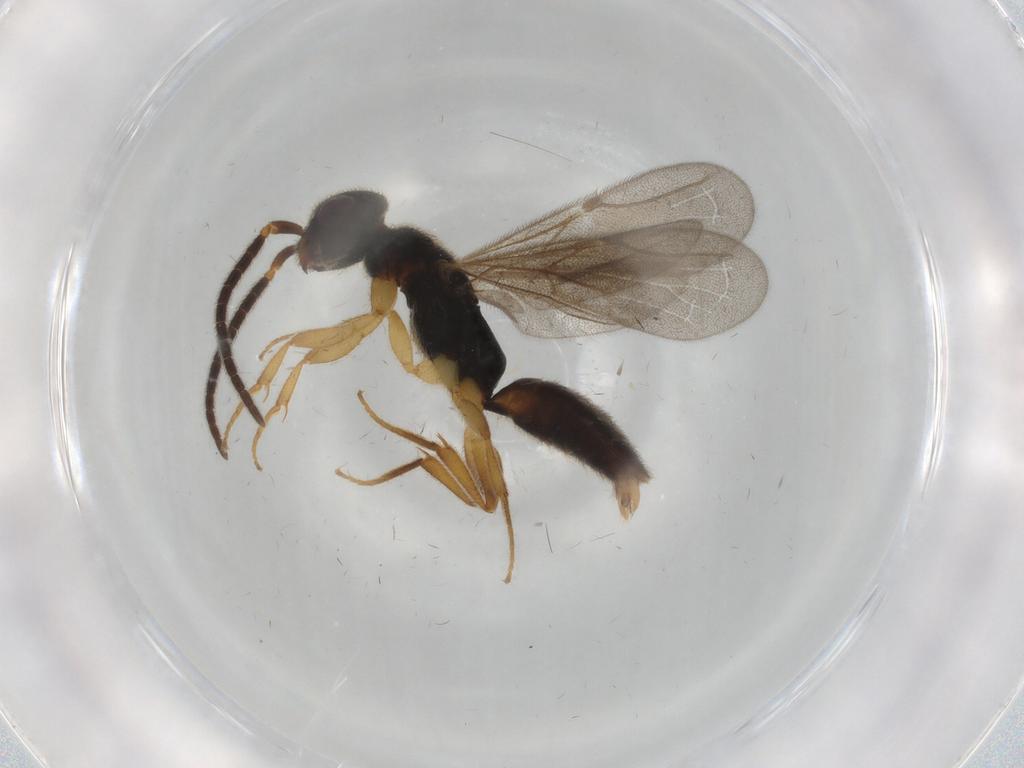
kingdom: Animalia
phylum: Arthropoda
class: Insecta
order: Hymenoptera
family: Bethylidae
